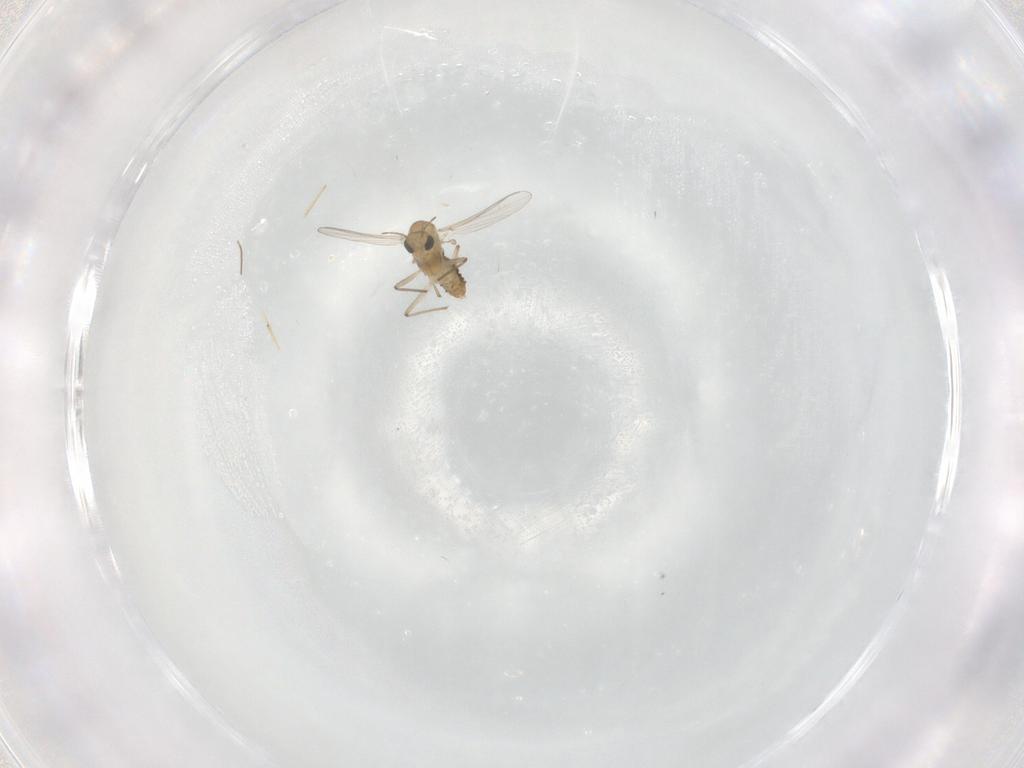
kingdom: Animalia
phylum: Arthropoda
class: Insecta
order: Diptera
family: Chironomidae
